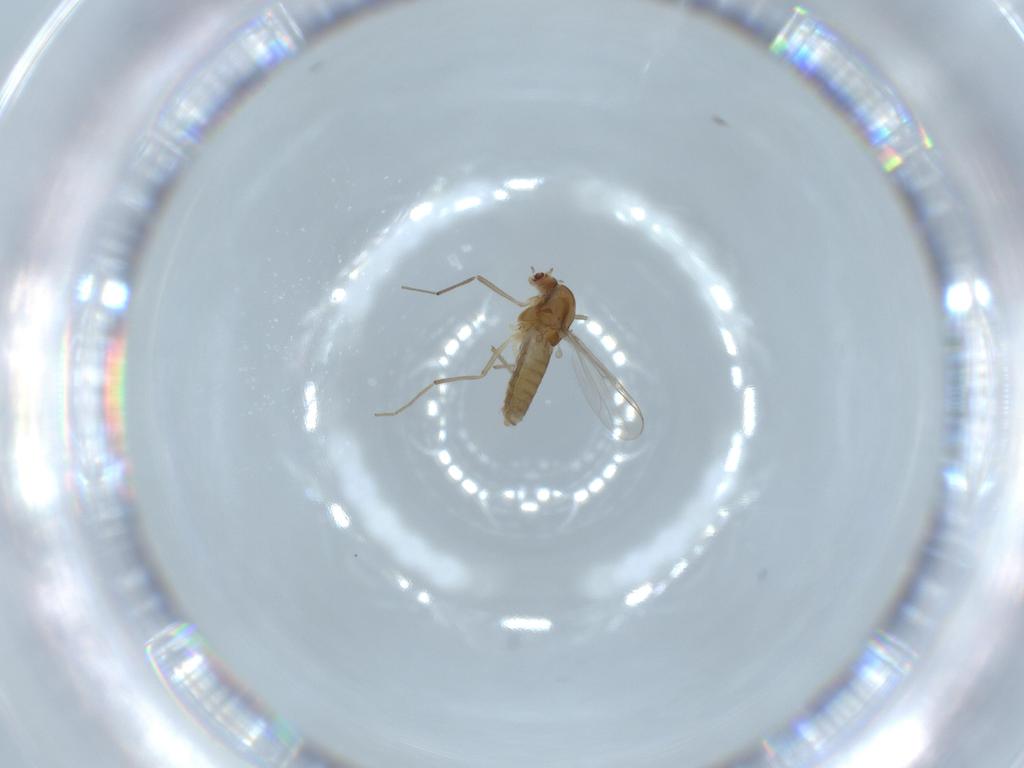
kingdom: Animalia
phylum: Arthropoda
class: Insecta
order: Diptera
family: Chironomidae
